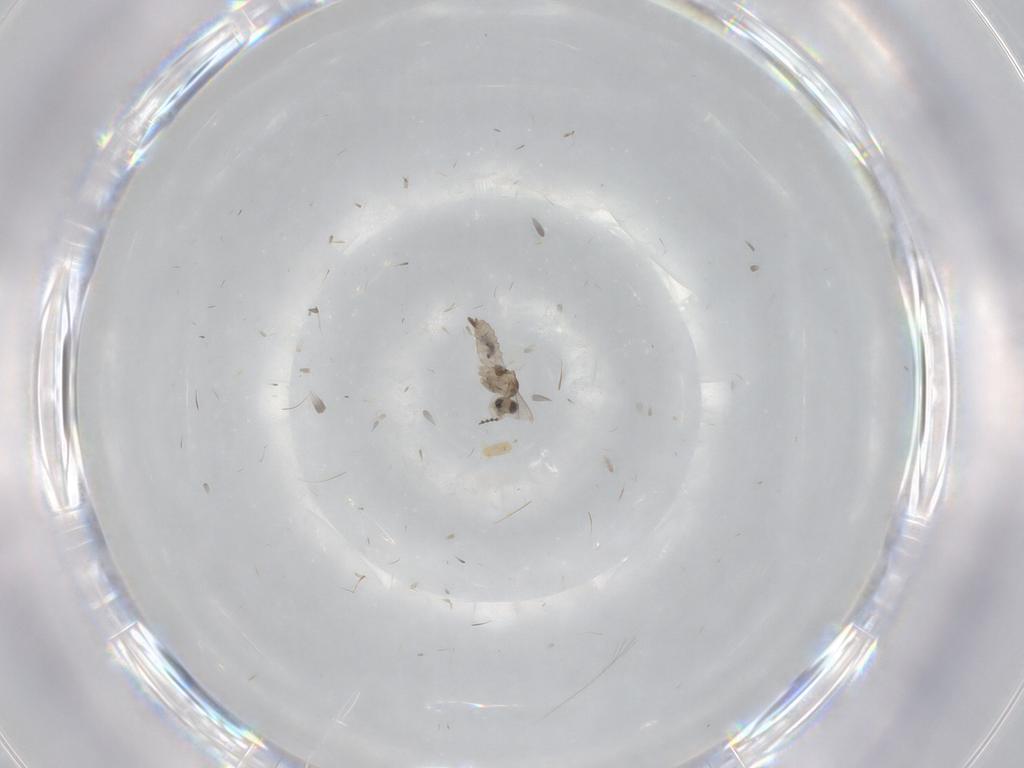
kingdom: Animalia
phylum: Arthropoda
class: Insecta
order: Diptera
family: Cecidomyiidae
